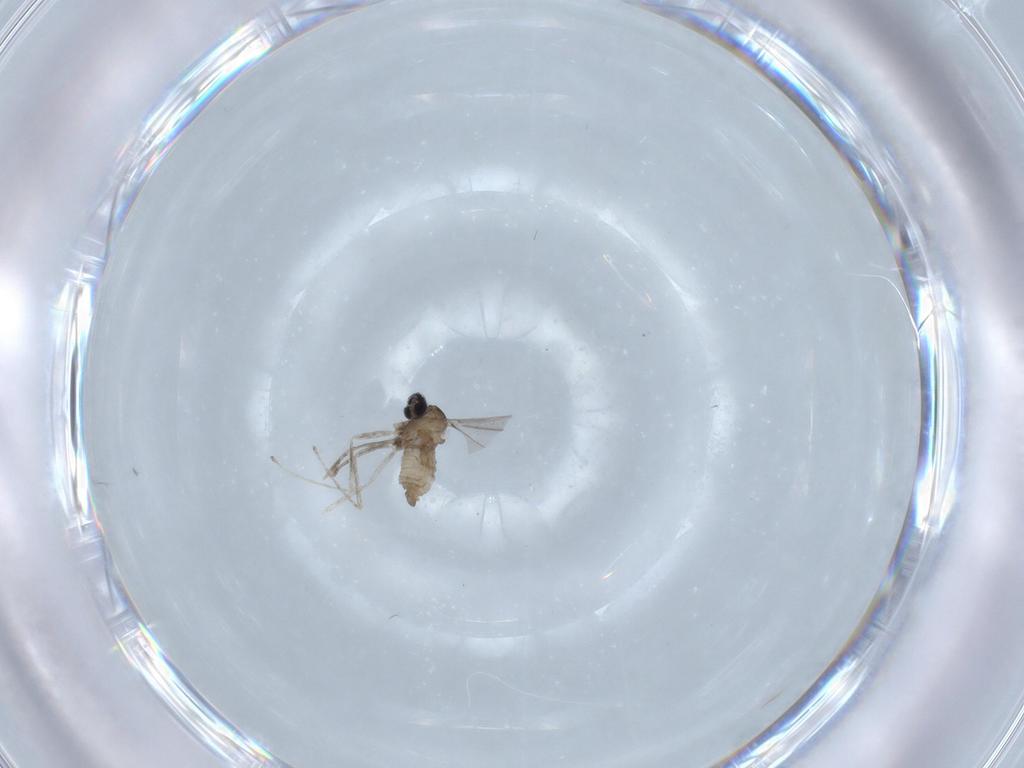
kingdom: Animalia
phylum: Arthropoda
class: Insecta
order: Diptera
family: Cecidomyiidae
